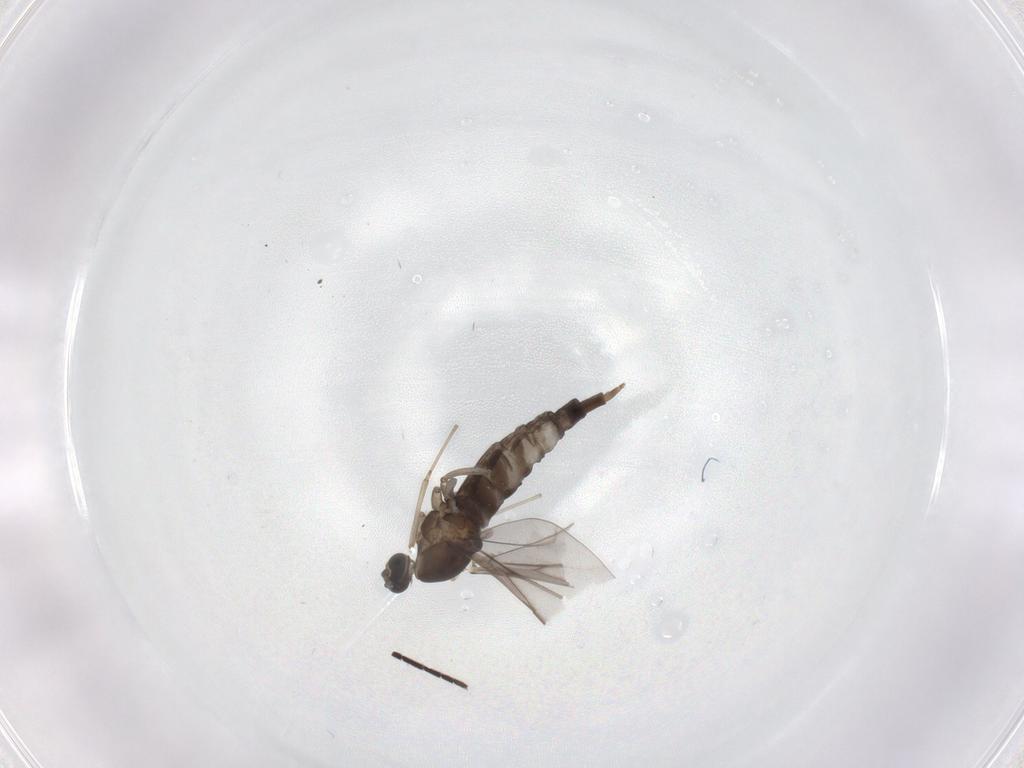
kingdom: Animalia
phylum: Arthropoda
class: Insecta
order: Diptera
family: Cecidomyiidae
